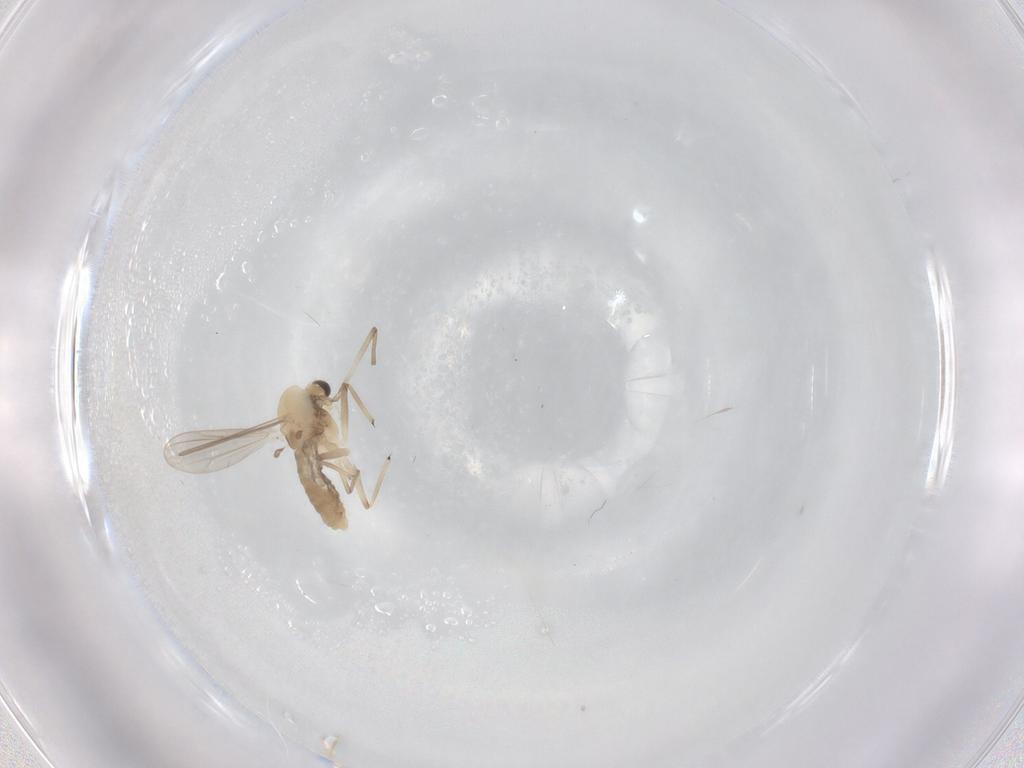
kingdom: Animalia
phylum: Arthropoda
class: Insecta
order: Diptera
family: Chironomidae
